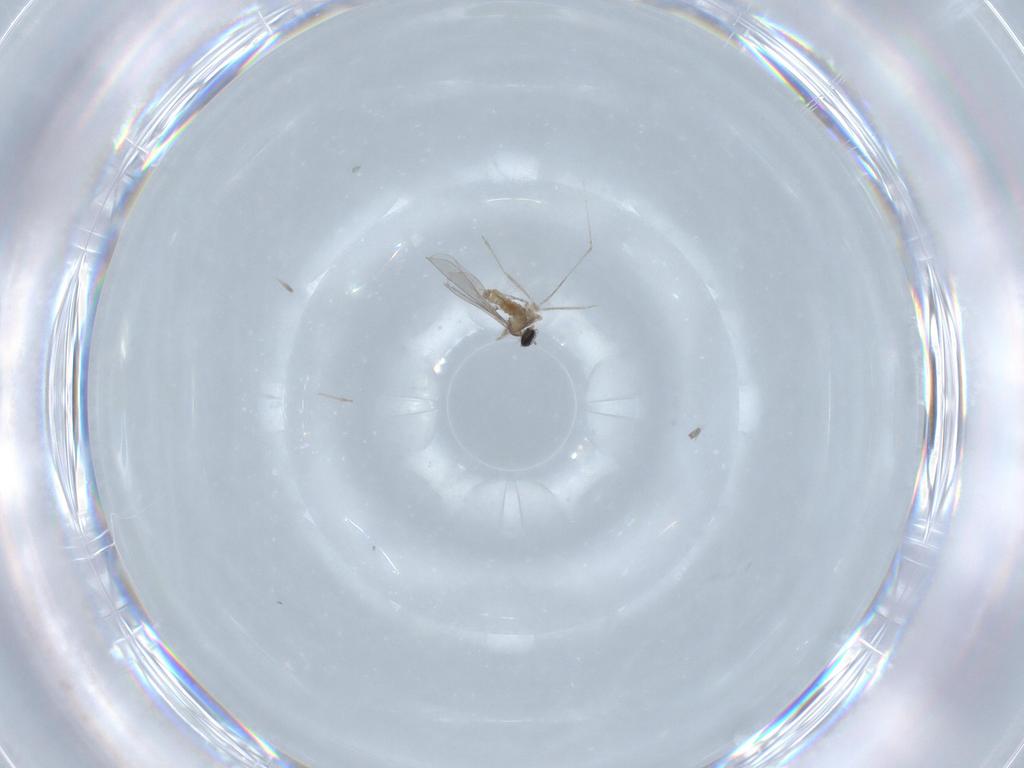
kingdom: Animalia
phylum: Arthropoda
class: Insecta
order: Diptera
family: Cecidomyiidae
